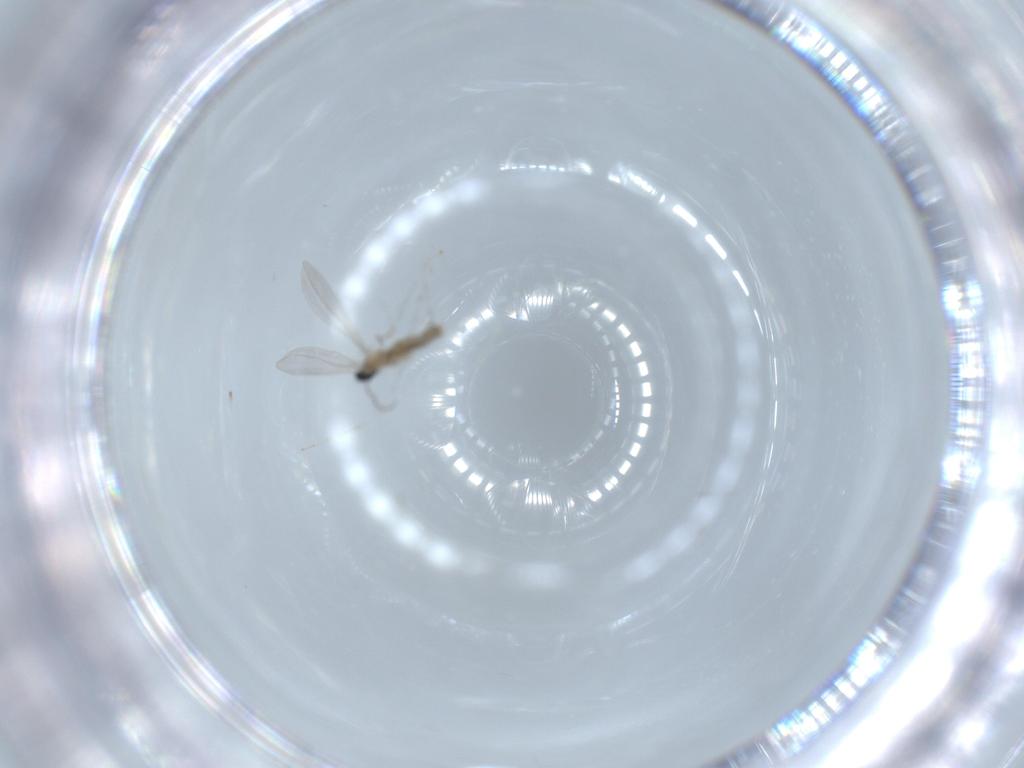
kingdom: Animalia
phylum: Arthropoda
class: Insecta
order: Diptera
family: Cecidomyiidae
